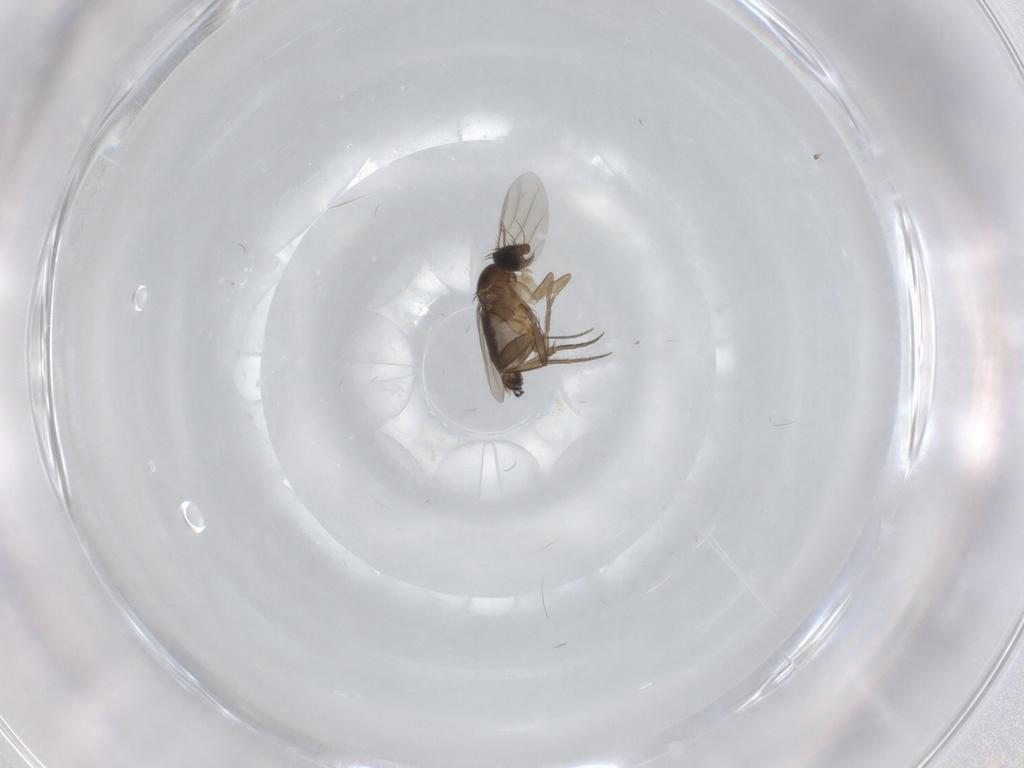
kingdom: Animalia
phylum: Arthropoda
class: Insecta
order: Diptera
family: Phoridae
